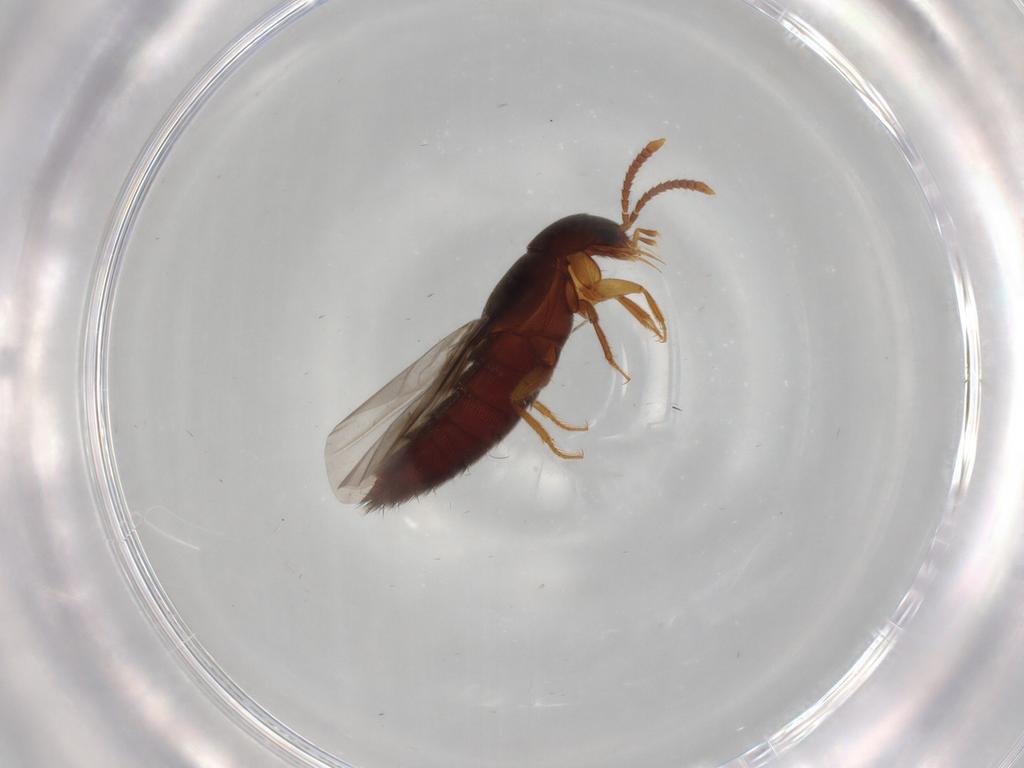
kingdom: Animalia
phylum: Arthropoda
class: Insecta
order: Coleoptera
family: Staphylinidae
